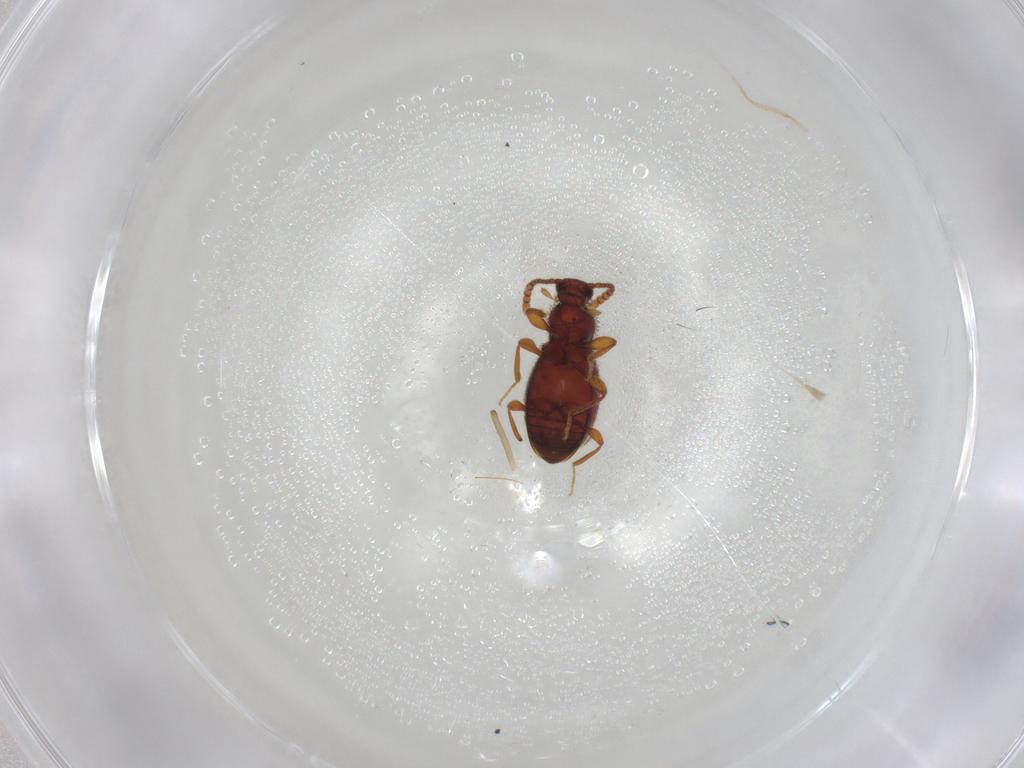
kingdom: Animalia
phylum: Arthropoda
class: Insecta
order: Coleoptera
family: Staphylinidae
